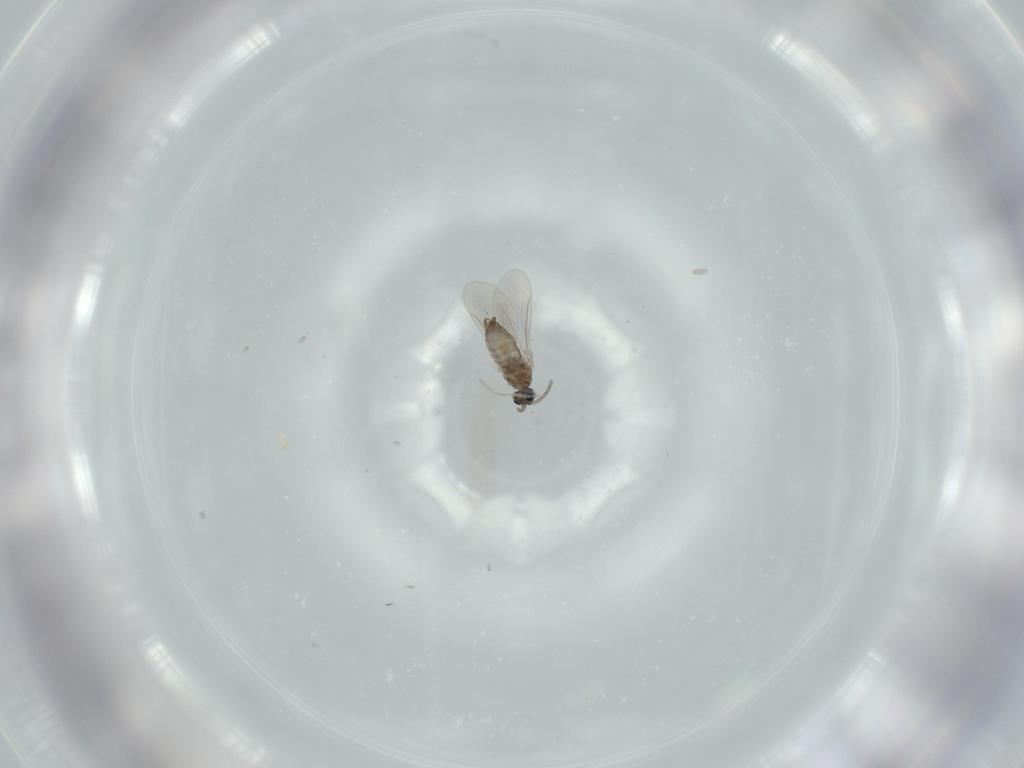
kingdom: Animalia
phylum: Arthropoda
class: Insecta
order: Diptera
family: Cecidomyiidae
